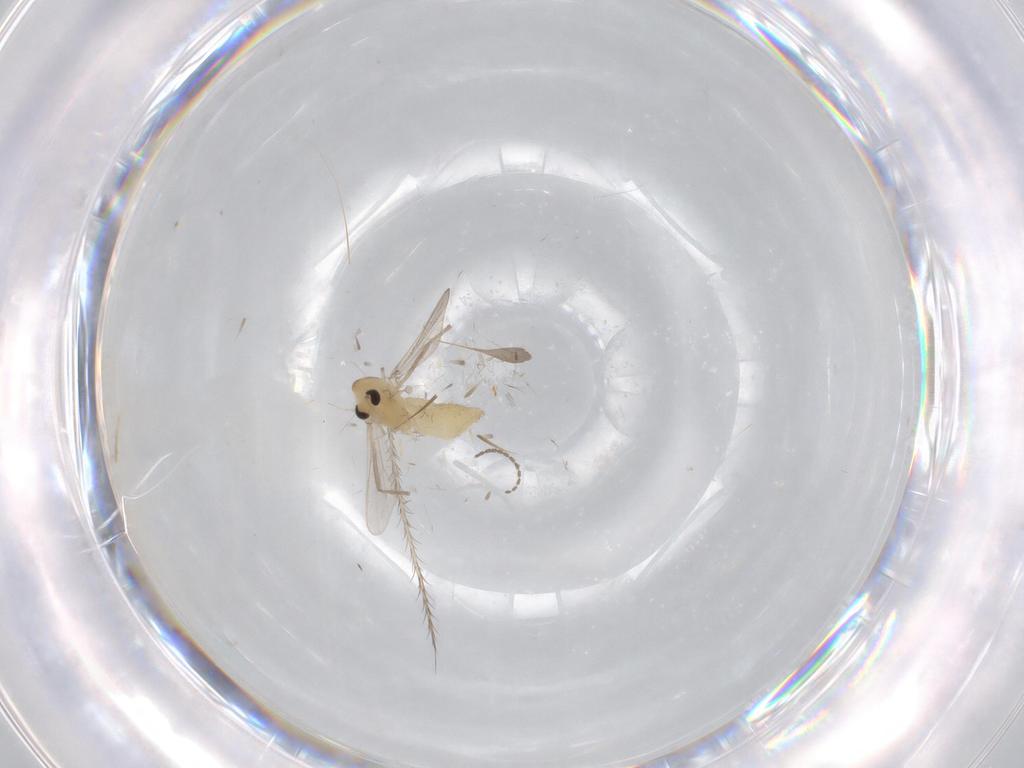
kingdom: Animalia
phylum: Arthropoda
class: Insecta
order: Diptera
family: Chironomidae
